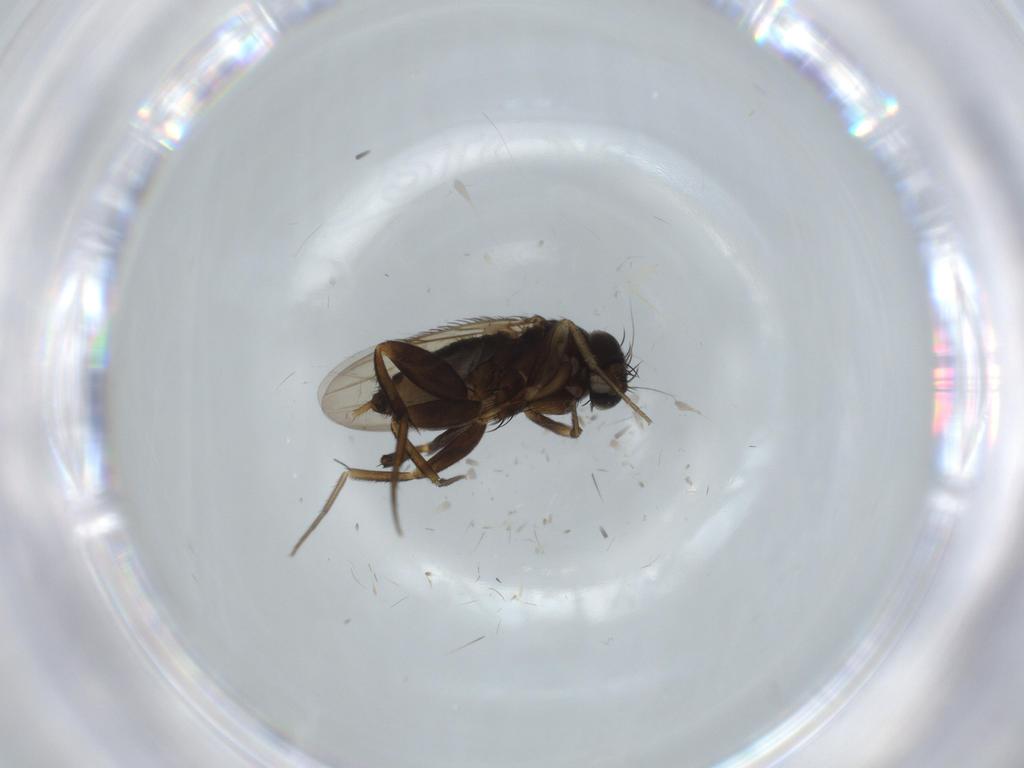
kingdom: Animalia
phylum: Arthropoda
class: Insecta
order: Diptera
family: Phoridae
